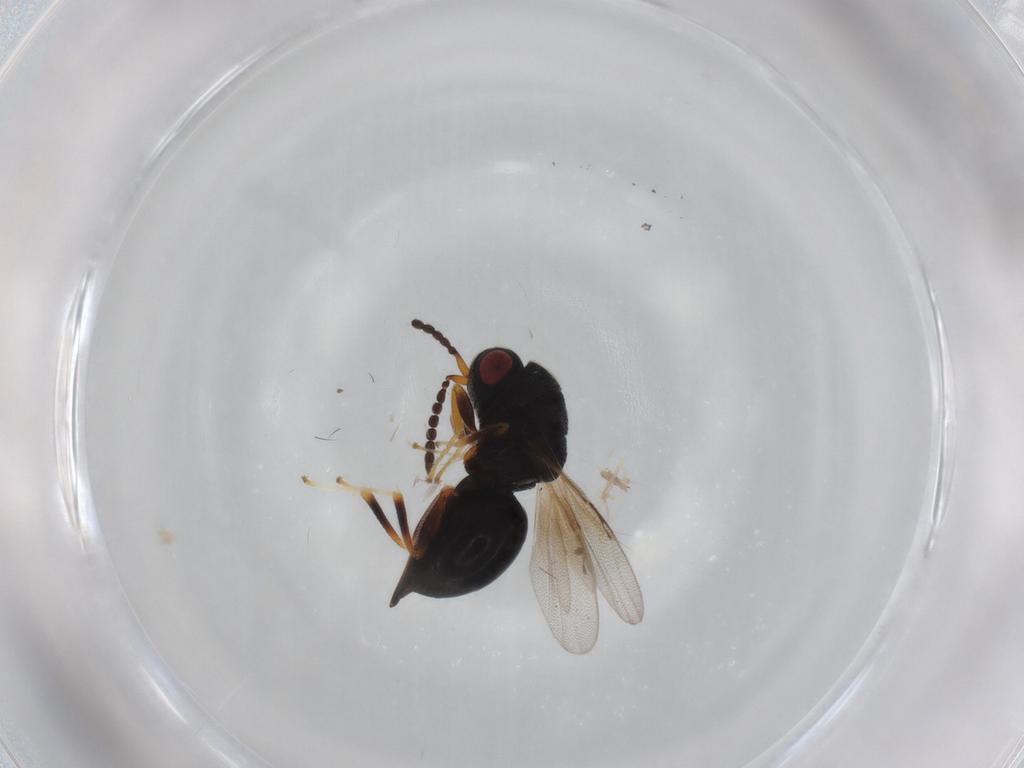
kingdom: Animalia
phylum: Arthropoda
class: Insecta
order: Hymenoptera
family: Eurytomidae
